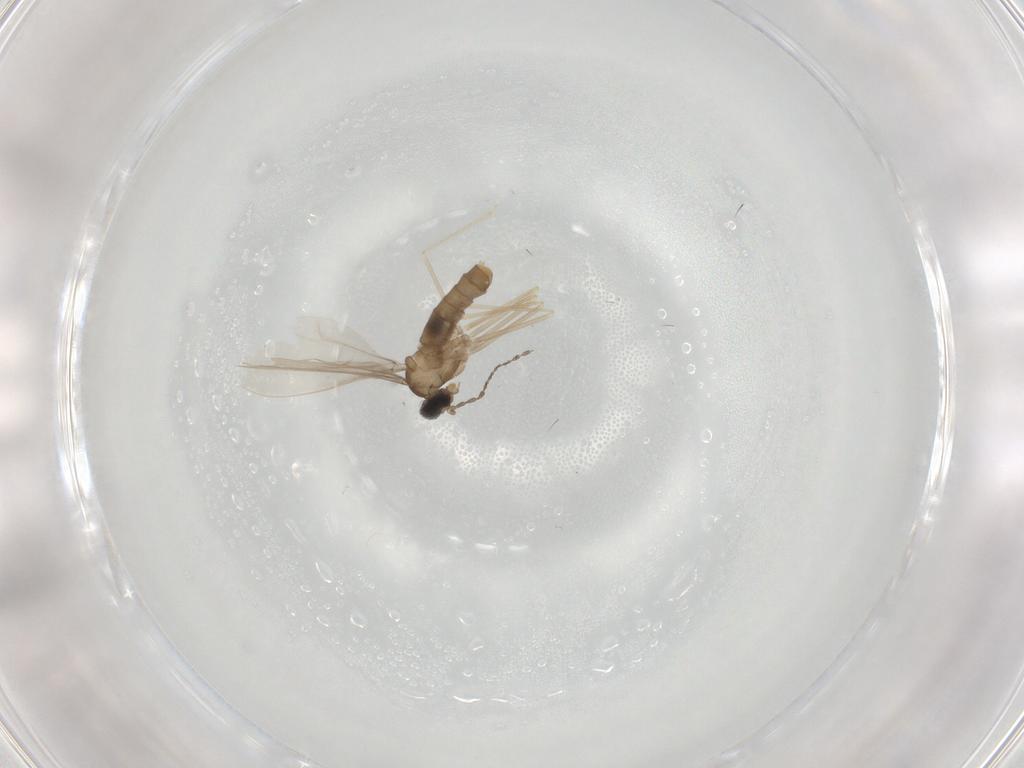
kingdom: Animalia
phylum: Arthropoda
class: Insecta
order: Diptera
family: Cecidomyiidae
